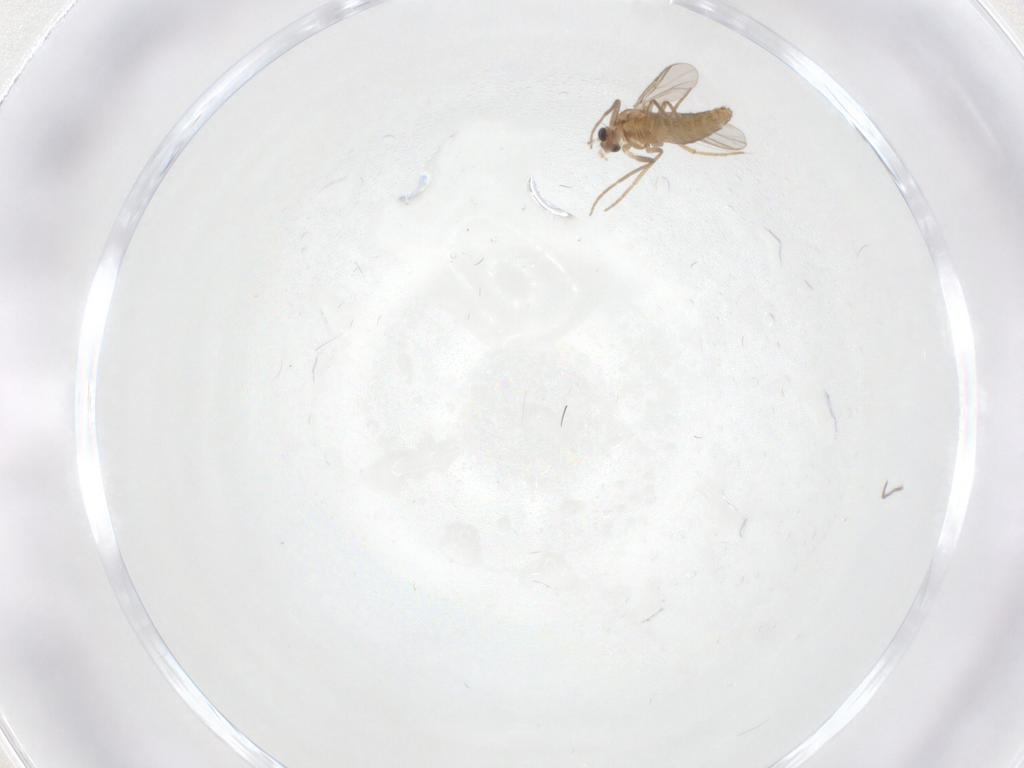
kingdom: Animalia
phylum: Arthropoda
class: Insecta
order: Diptera
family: Chironomidae
